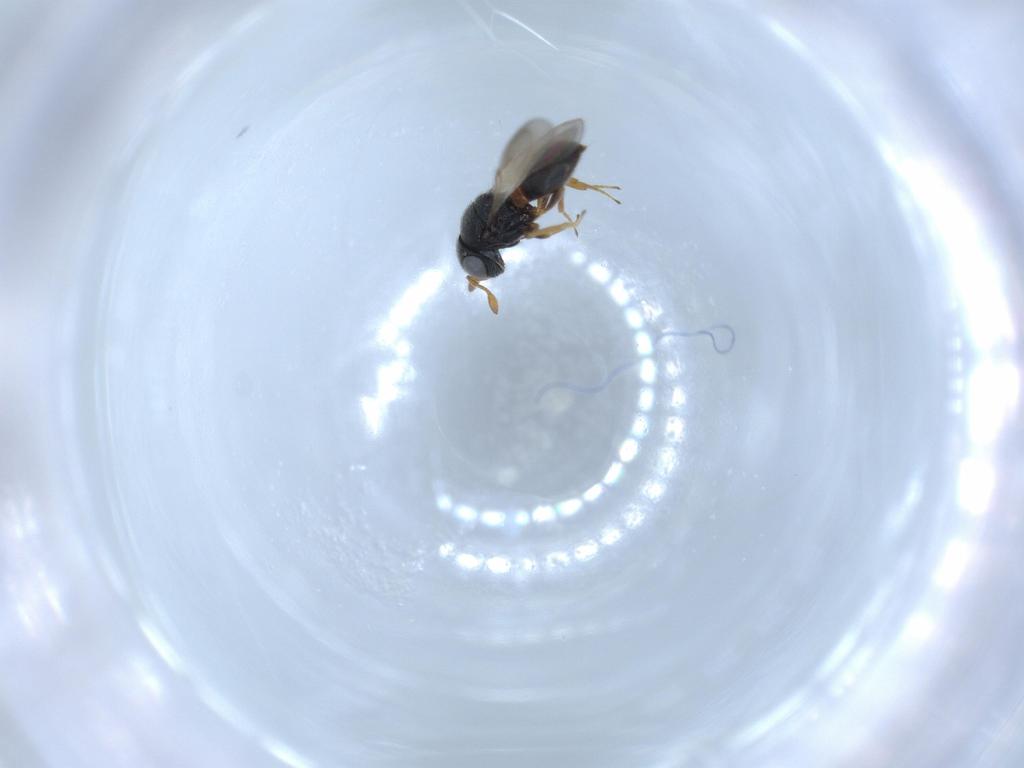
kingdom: Animalia
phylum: Arthropoda
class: Insecta
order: Hymenoptera
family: Scelionidae
